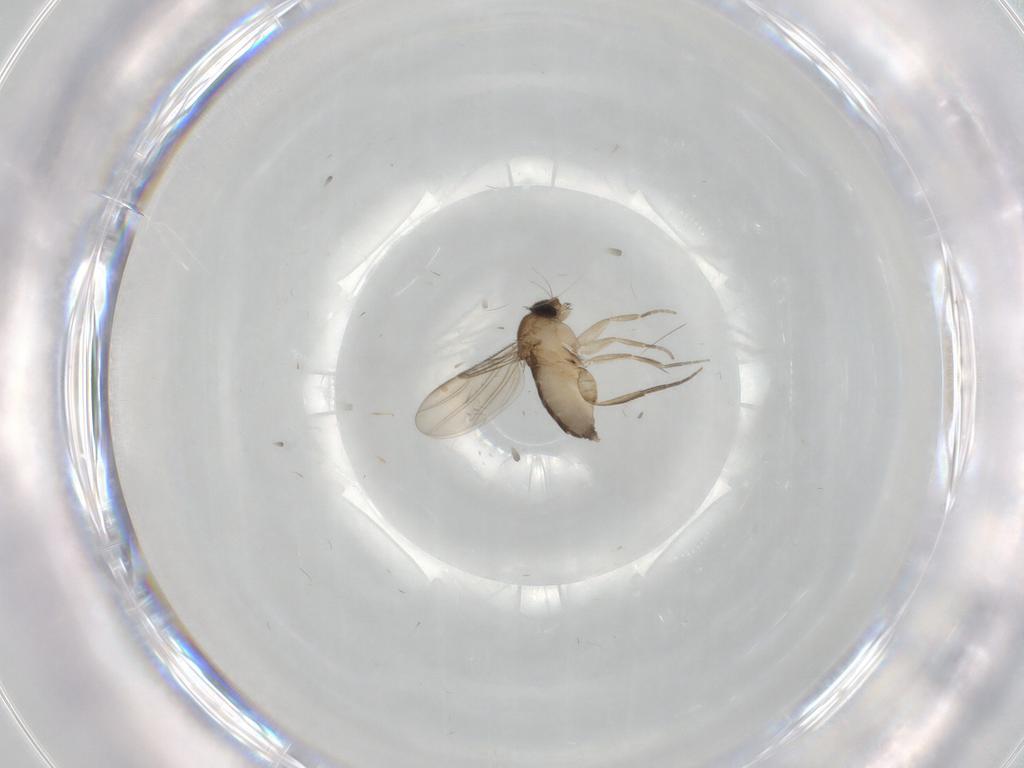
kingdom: Animalia
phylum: Arthropoda
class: Insecta
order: Diptera
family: Phoridae
